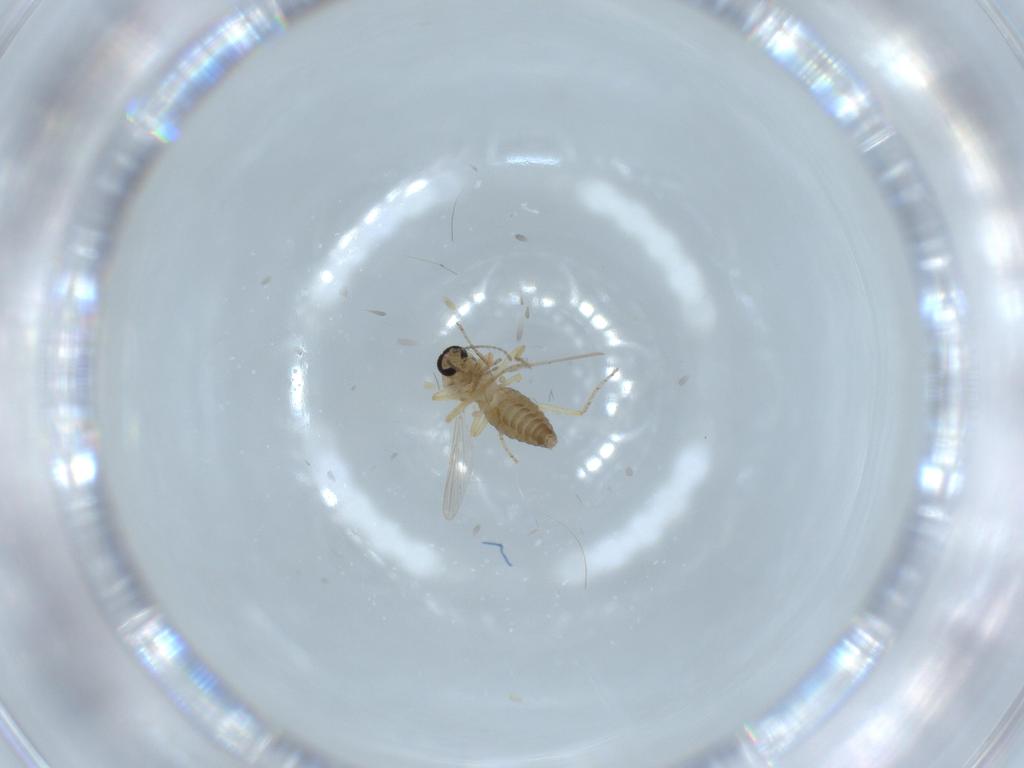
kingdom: Animalia
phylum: Arthropoda
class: Insecta
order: Diptera
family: Ceratopogonidae
